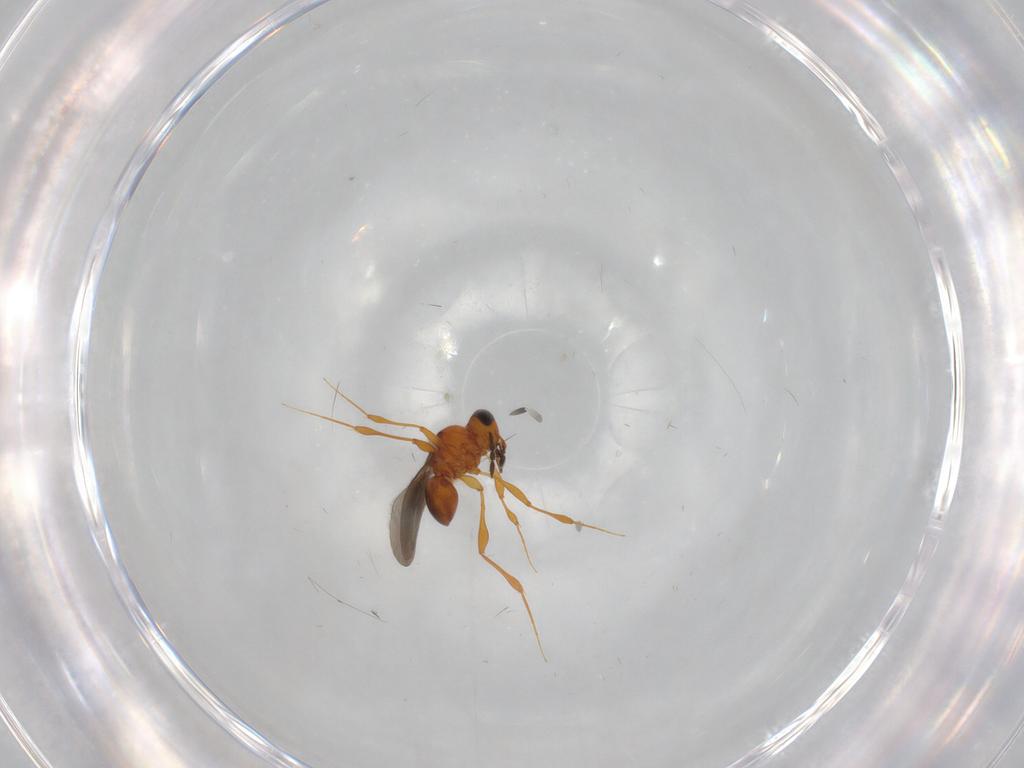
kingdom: Animalia
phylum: Arthropoda
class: Insecta
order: Hymenoptera
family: Platygastridae
